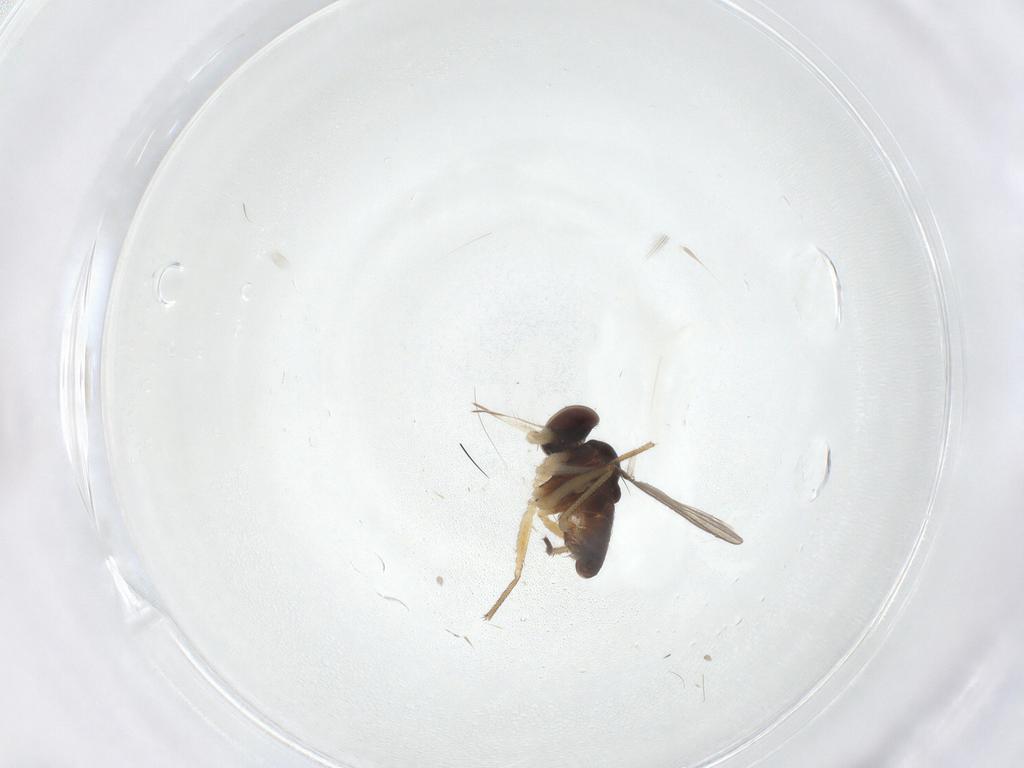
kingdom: Animalia
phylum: Arthropoda
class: Insecta
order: Diptera
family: Dolichopodidae
